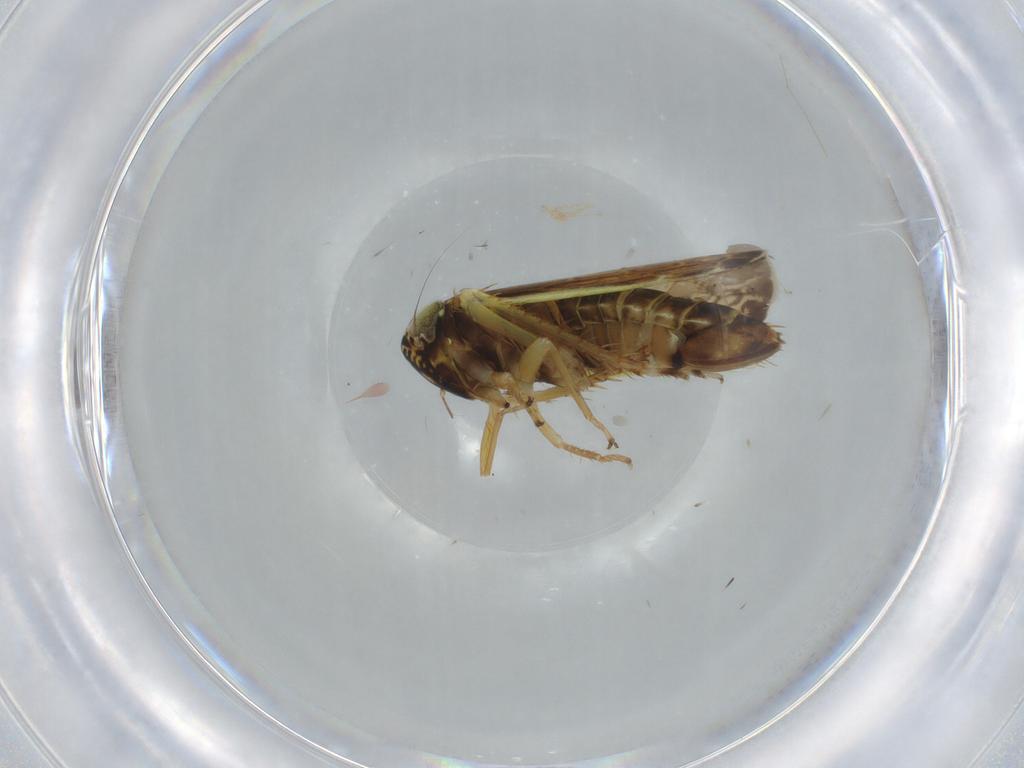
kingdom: Animalia
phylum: Arthropoda
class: Insecta
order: Hemiptera
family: Cicadellidae
